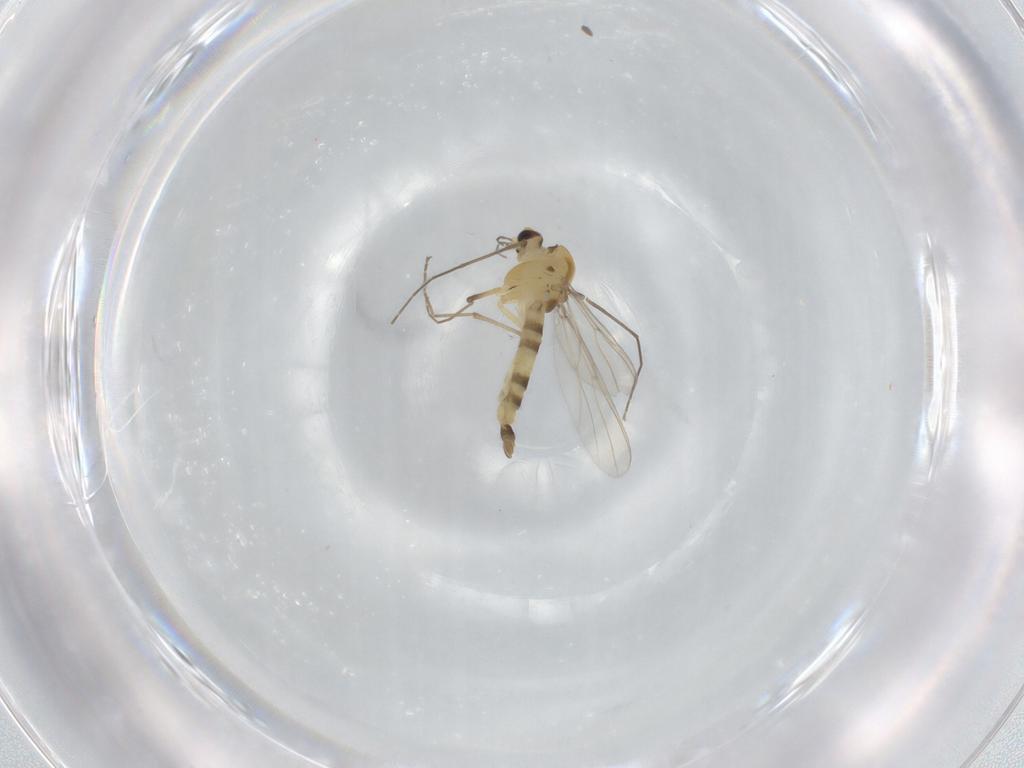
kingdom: Animalia
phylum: Arthropoda
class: Insecta
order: Diptera
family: Chironomidae
